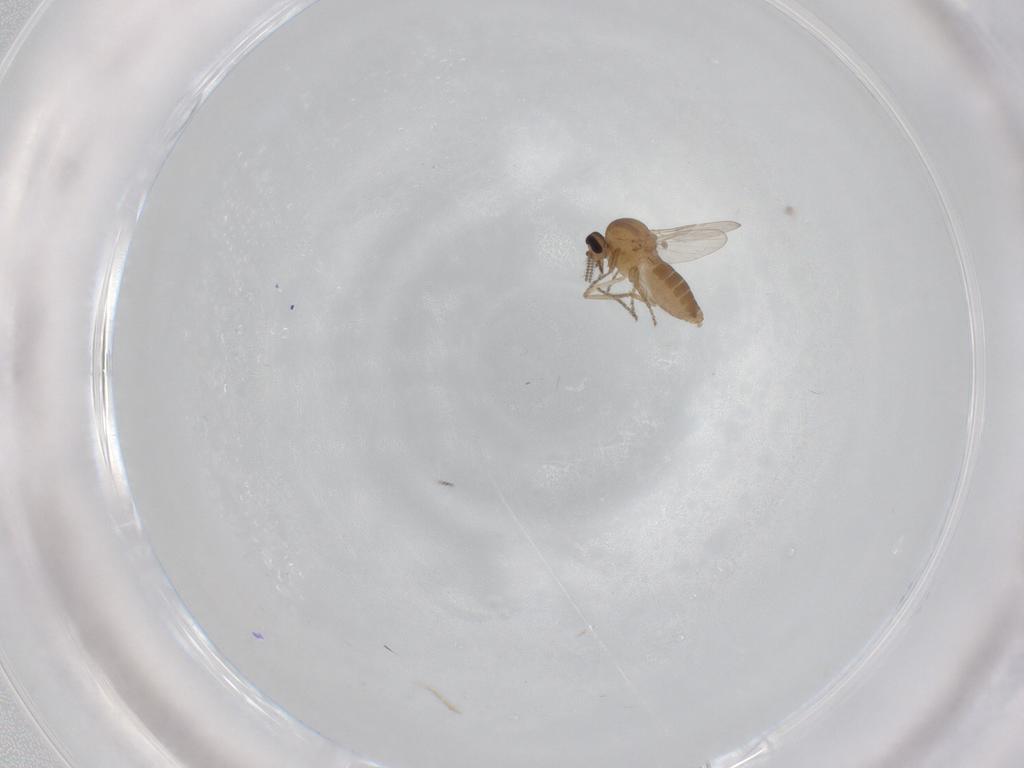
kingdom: Animalia
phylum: Arthropoda
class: Insecta
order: Diptera
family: Ceratopogonidae
